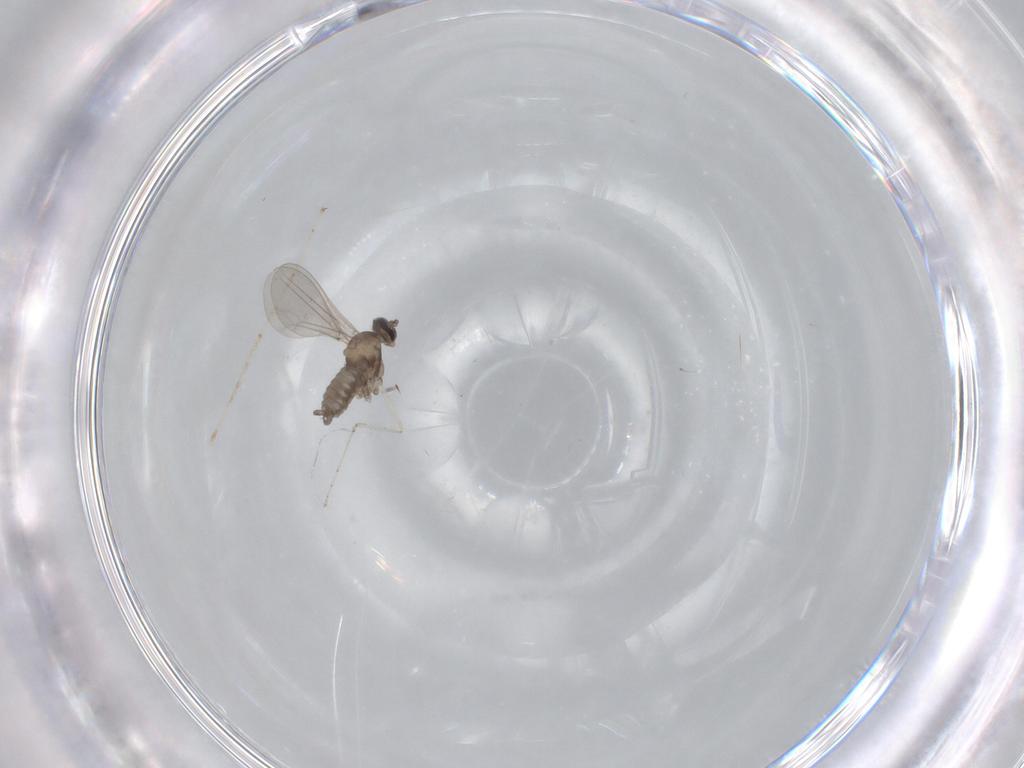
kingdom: Animalia
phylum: Arthropoda
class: Insecta
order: Diptera
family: Cecidomyiidae
